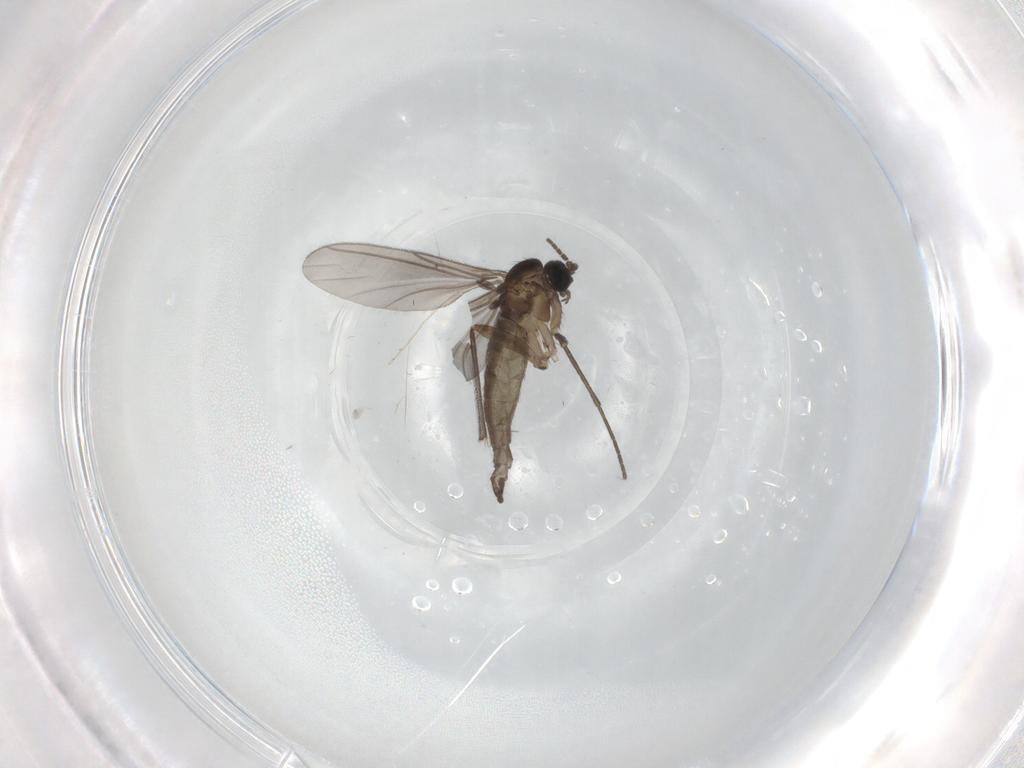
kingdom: Animalia
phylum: Arthropoda
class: Insecta
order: Diptera
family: Sciaridae
